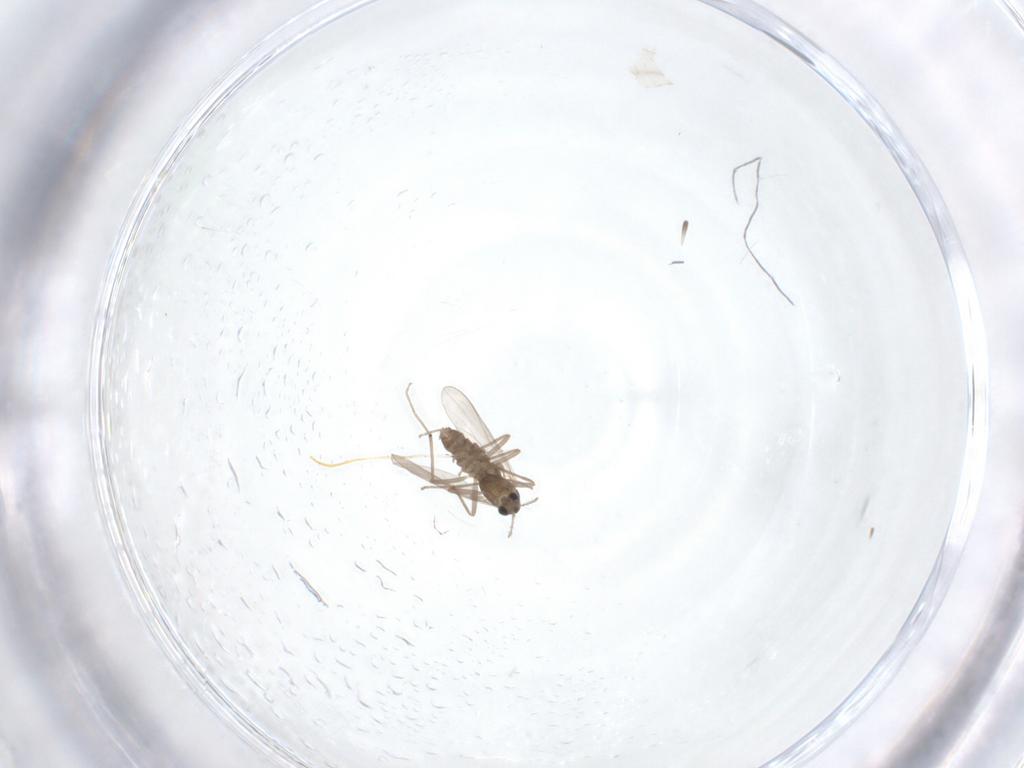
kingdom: Animalia
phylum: Arthropoda
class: Insecta
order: Diptera
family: Chironomidae
